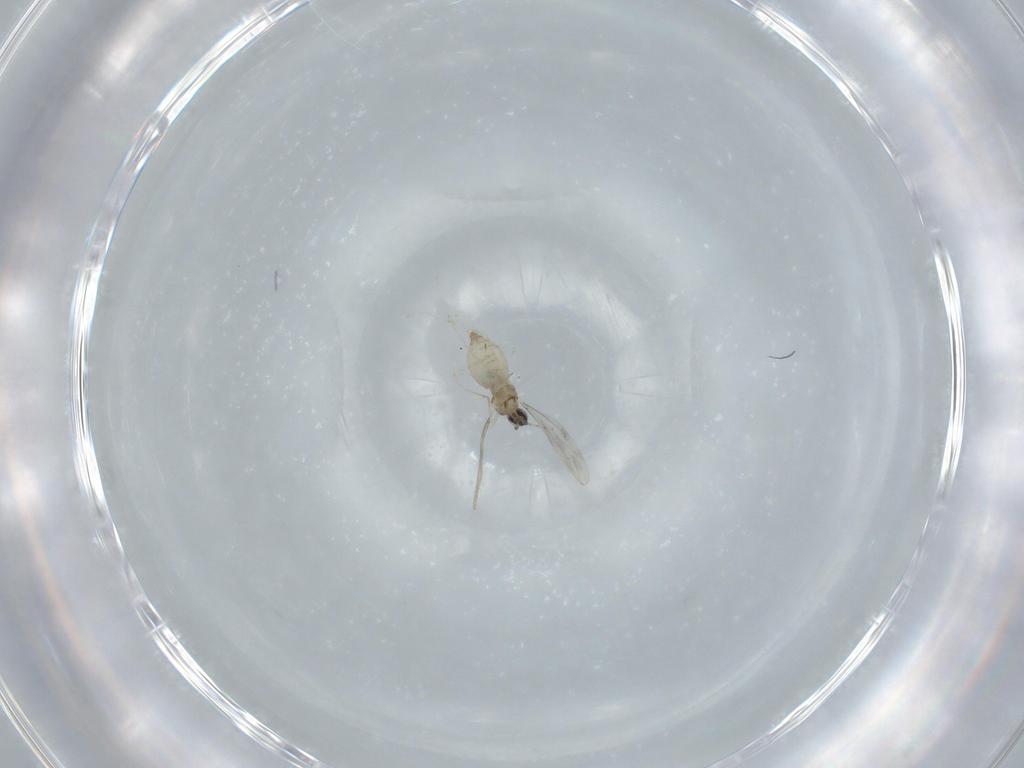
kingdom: Animalia
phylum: Arthropoda
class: Insecta
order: Diptera
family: Cecidomyiidae
